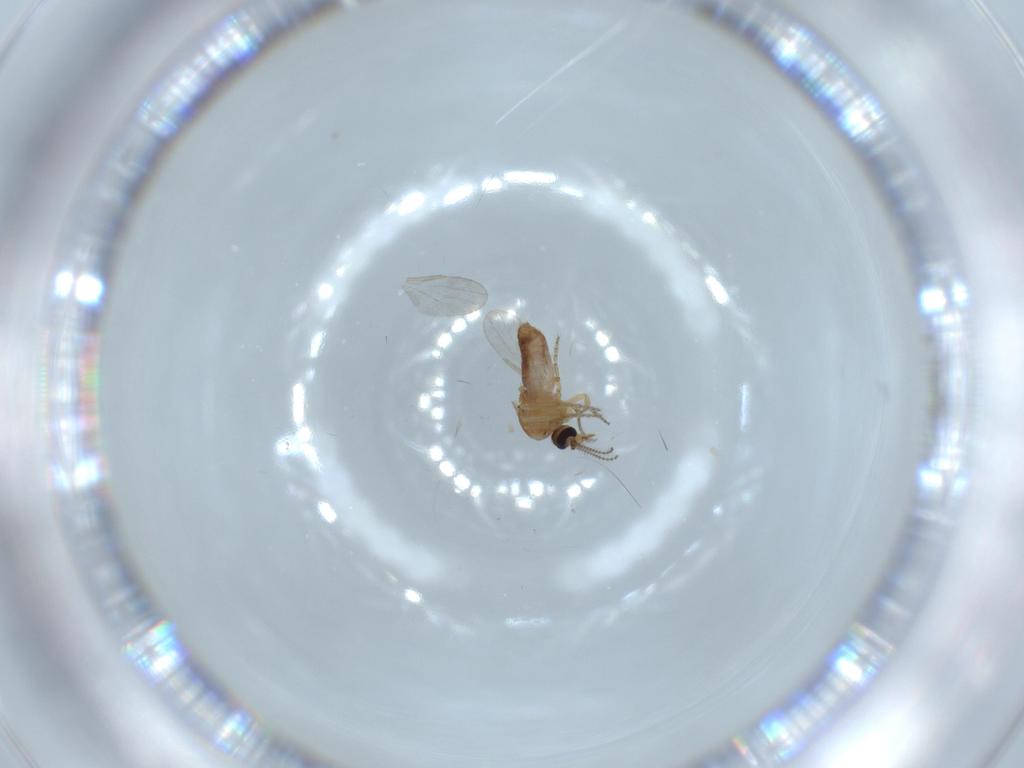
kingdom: Animalia
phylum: Arthropoda
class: Insecta
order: Diptera
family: Ceratopogonidae
